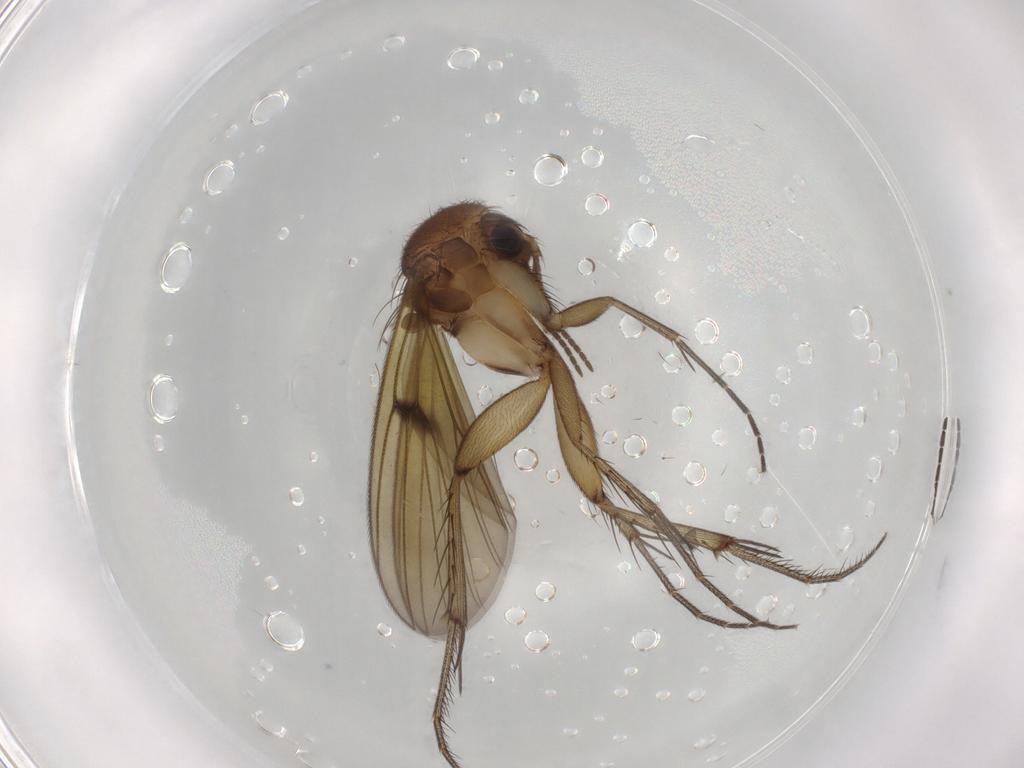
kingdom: Animalia
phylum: Arthropoda
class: Insecta
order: Diptera
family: Sciaridae
